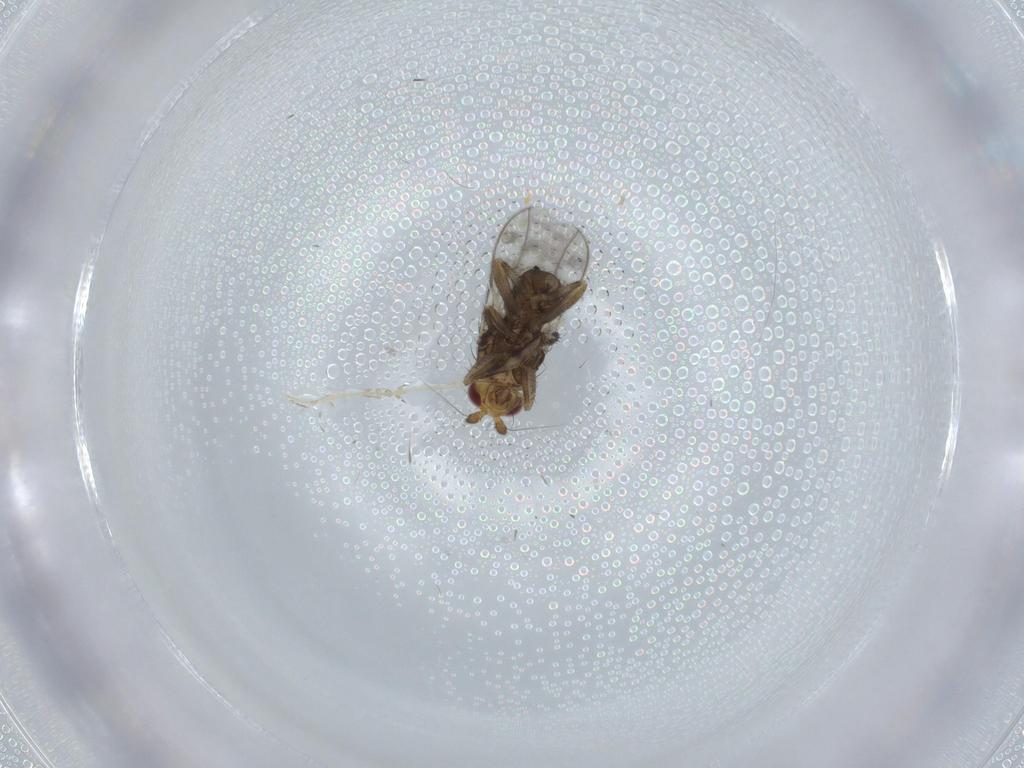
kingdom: Animalia
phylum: Arthropoda
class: Insecta
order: Diptera
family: Sphaeroceridae
